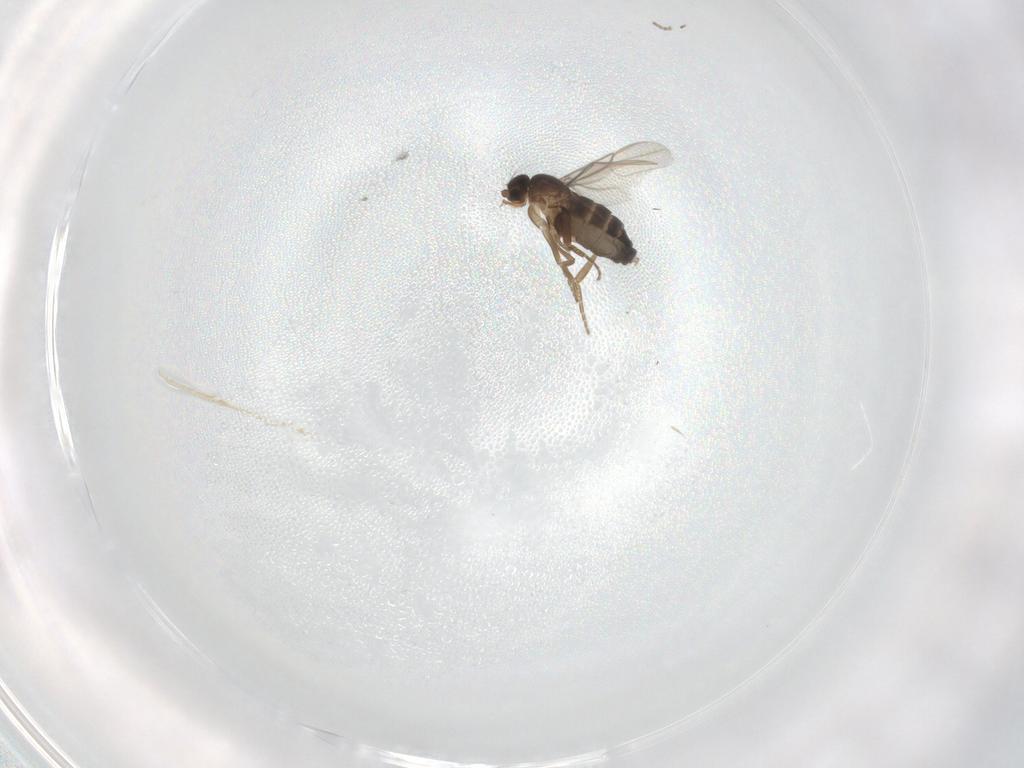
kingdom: Animalia
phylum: Arthropoda
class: Insecta
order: Diptera
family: Phoridae
